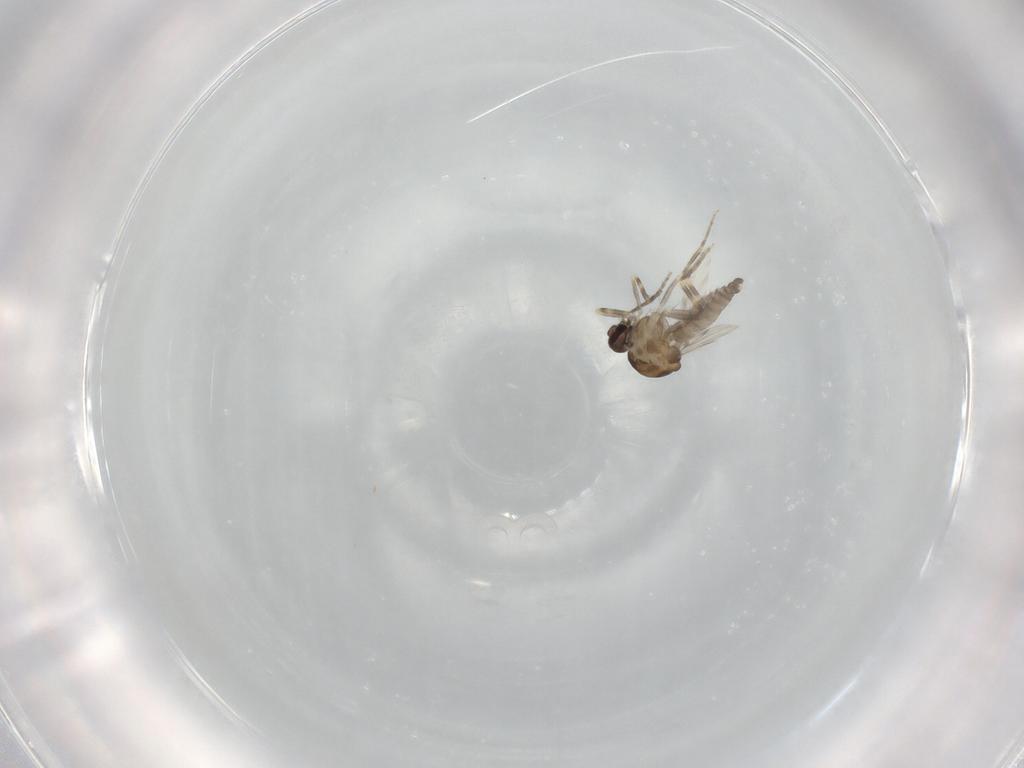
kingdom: Animalia
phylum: Arthropoda
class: Insecta
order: Diptera
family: Ceratopogonidae
